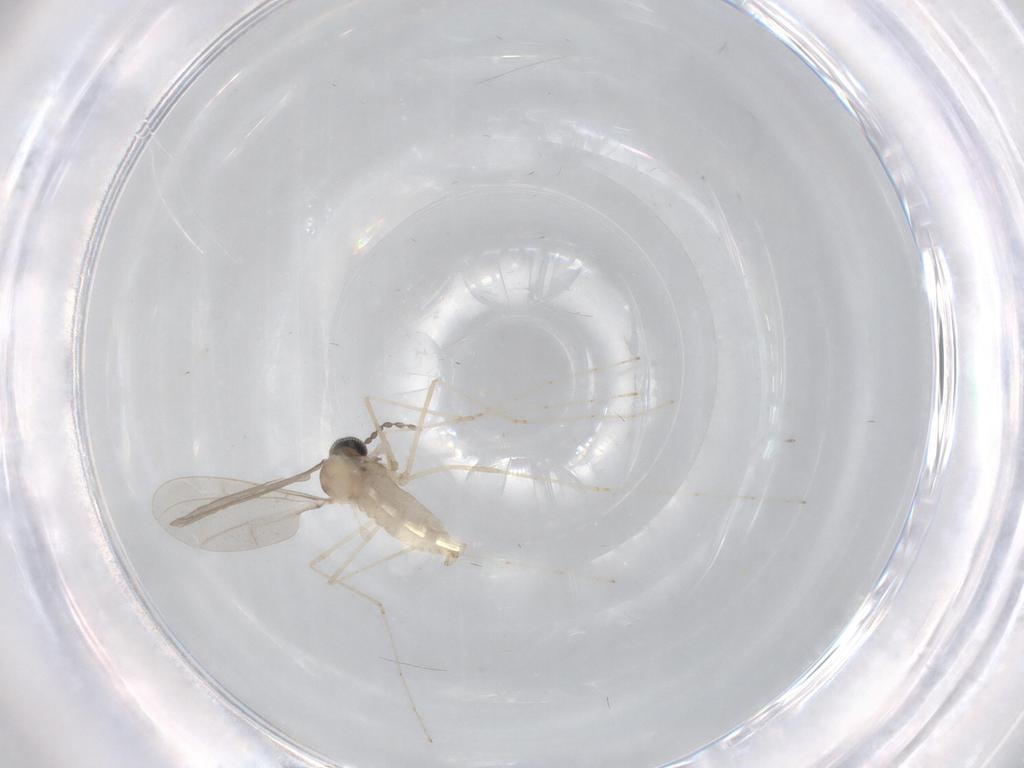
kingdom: Animalia
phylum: Arthropoda
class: Insecta
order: Diptera
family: Cecidomyiidae
